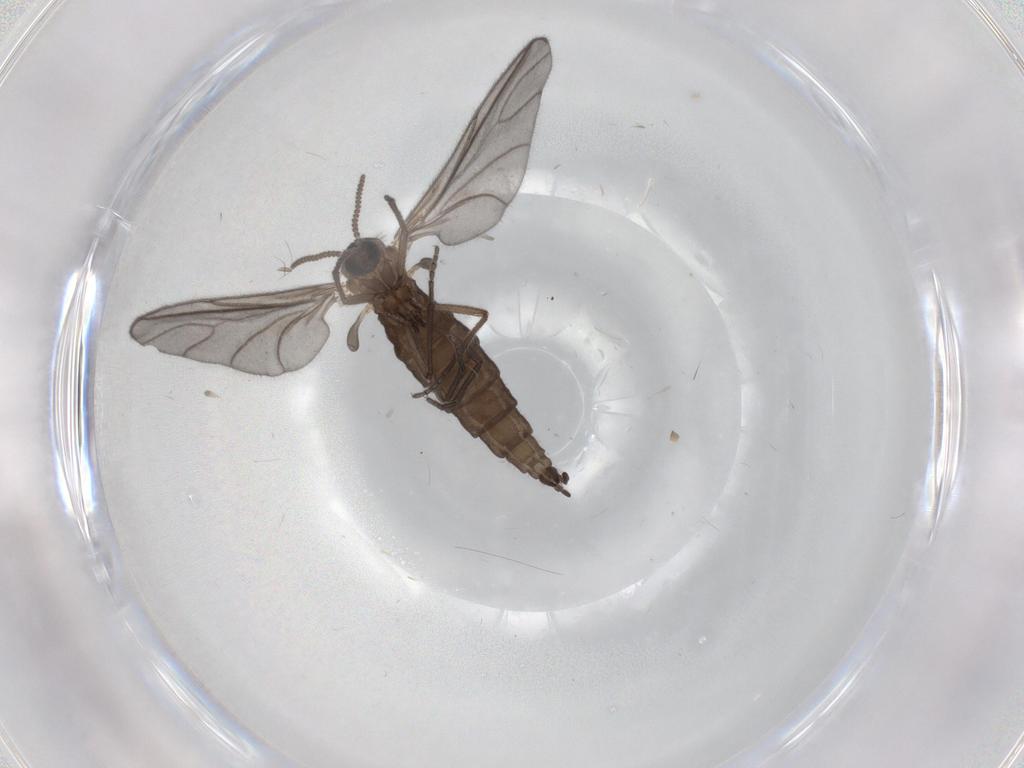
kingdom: Animalia
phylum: Arthropoda
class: Insecta
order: Diptera
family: Sciaridae
